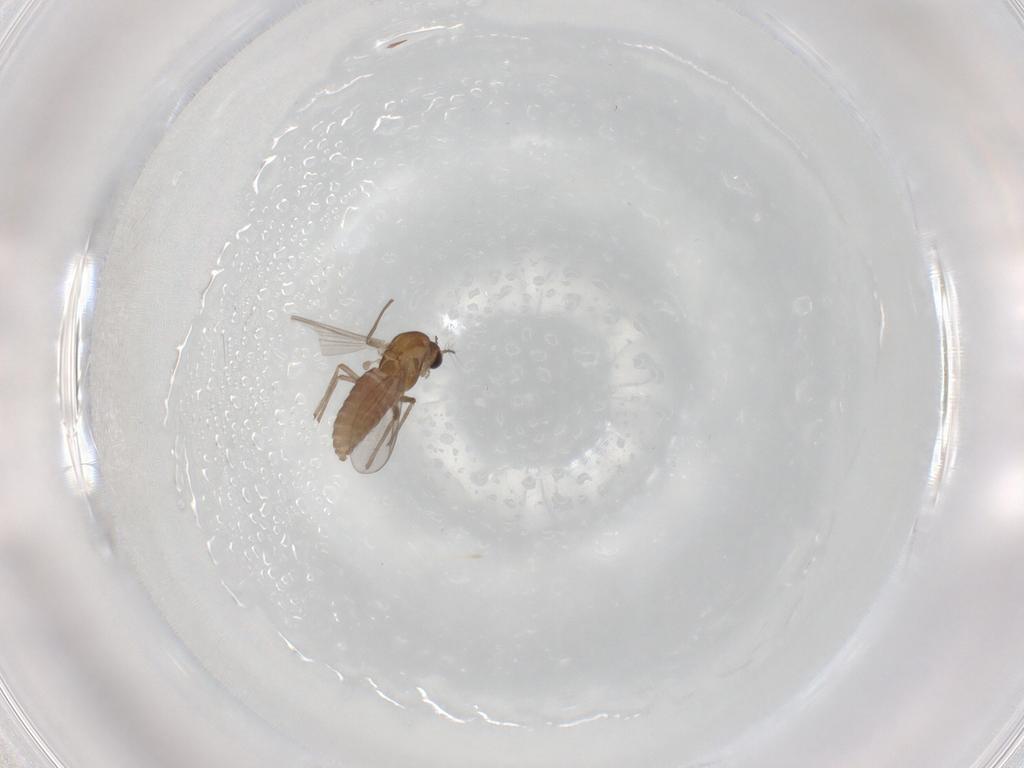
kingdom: Animalia
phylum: Arthropoda
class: Insecta
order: Diptera
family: Chironomidae
